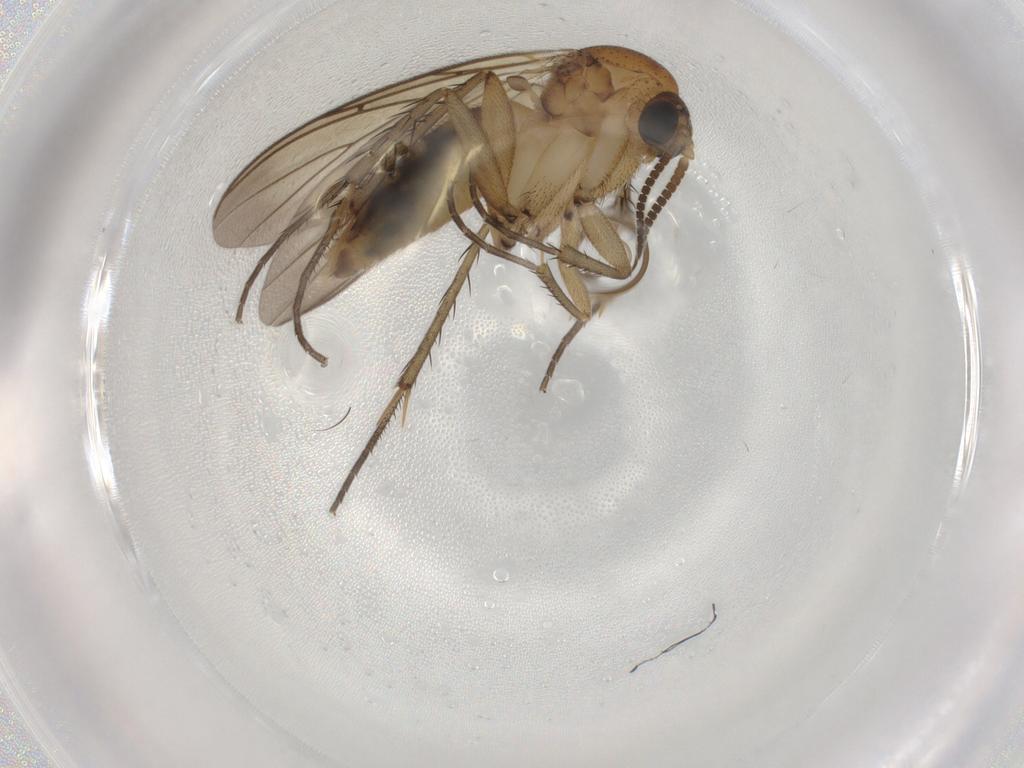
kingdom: Animalia
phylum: Arthropoda
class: Insecta
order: Diptera
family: Mycetophilidae
